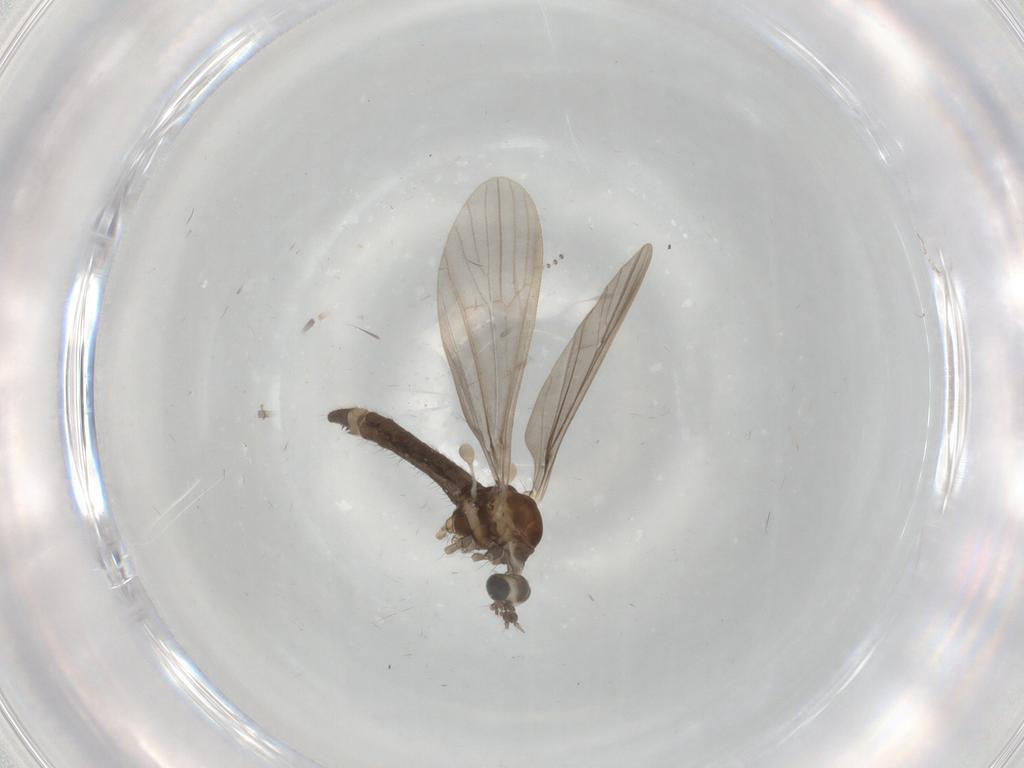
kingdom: Animalia
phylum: Arthropoda
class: Insecta
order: Diptera
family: Limoniidae
